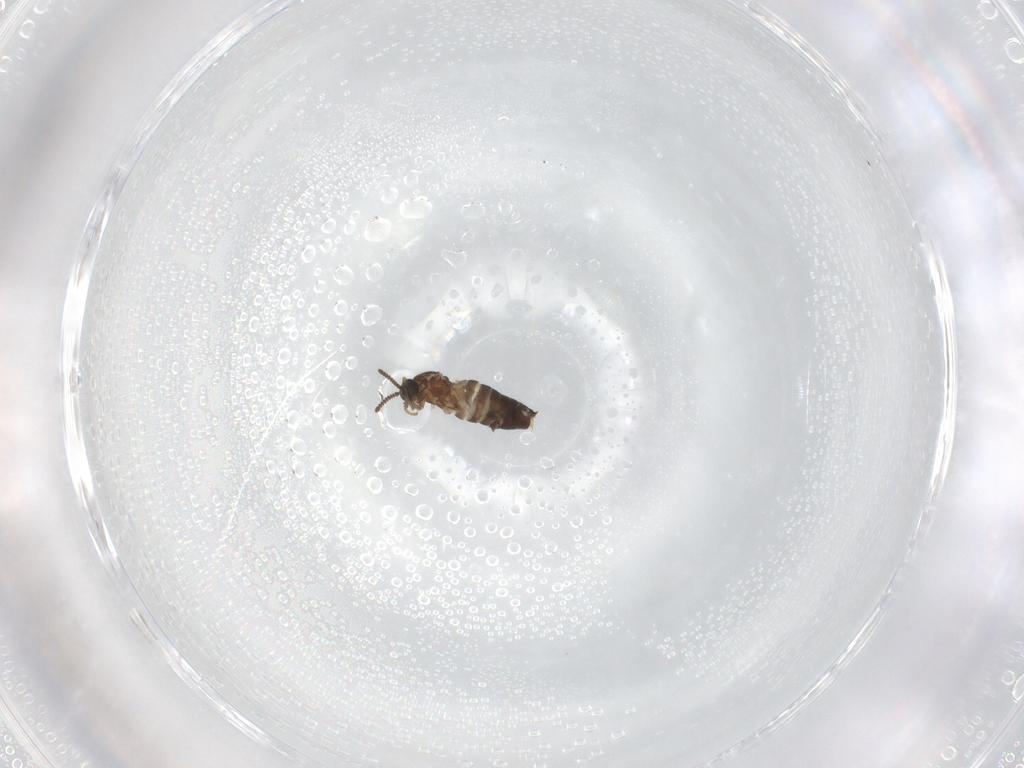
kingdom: Animalia
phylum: Arthropoda
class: Insecta
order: Diptera
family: Scatopsidae
